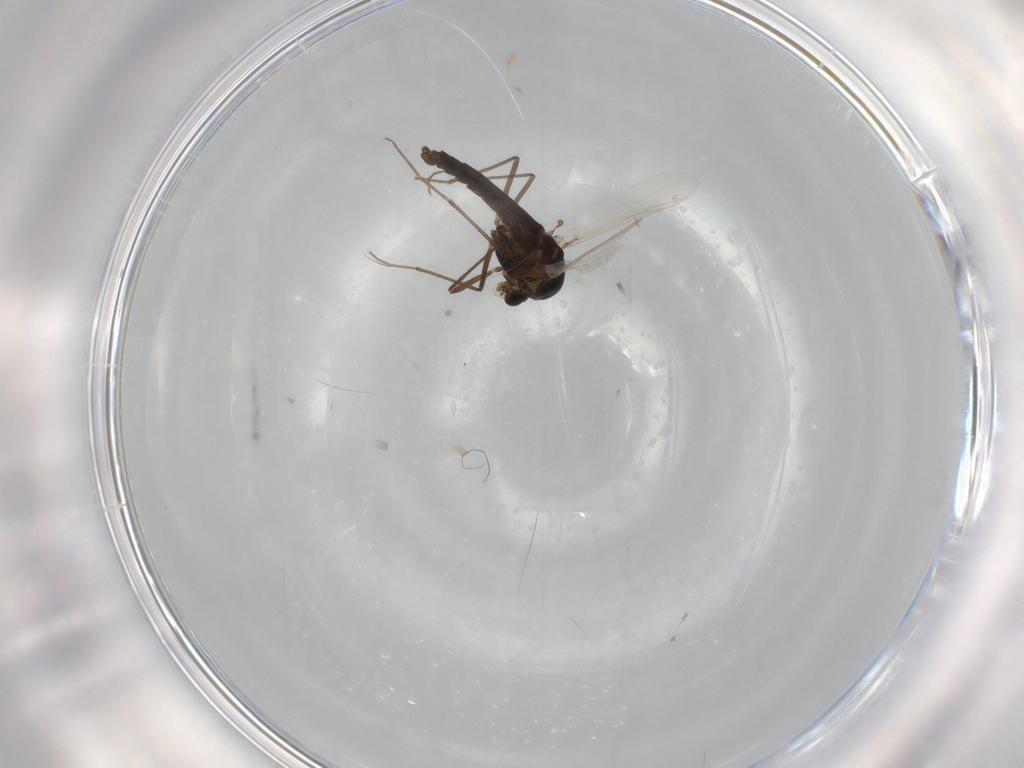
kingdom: Animalia
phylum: Arthropoda
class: Insecta
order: Diptera
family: Chironomidae
